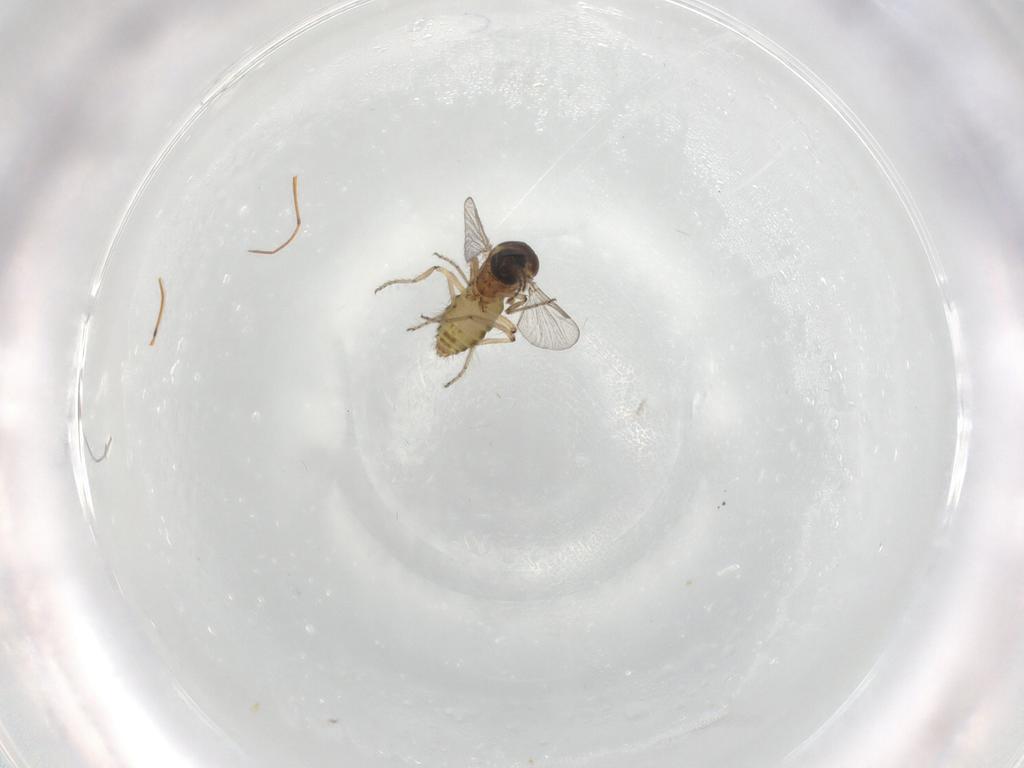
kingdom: Animalia
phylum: Arthropoda
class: Insecta
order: Diptera
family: Ceratopogonidae
